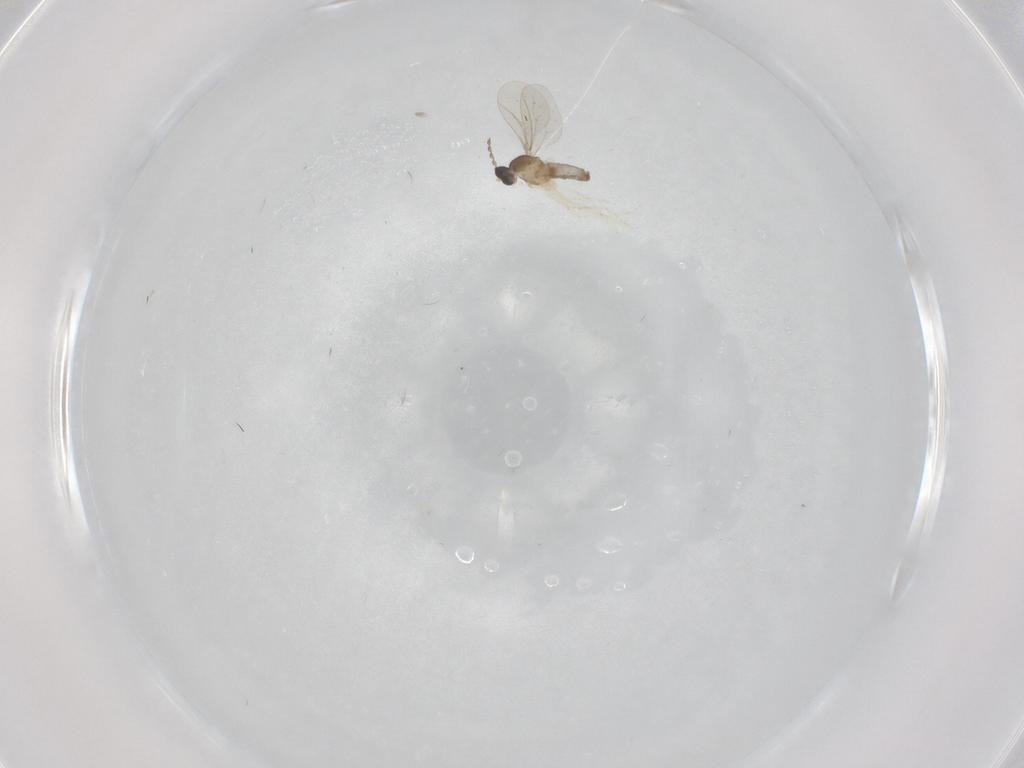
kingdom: Animalia
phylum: Arthropoda
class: Insecta
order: Diptera
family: Cecidomyiidae
